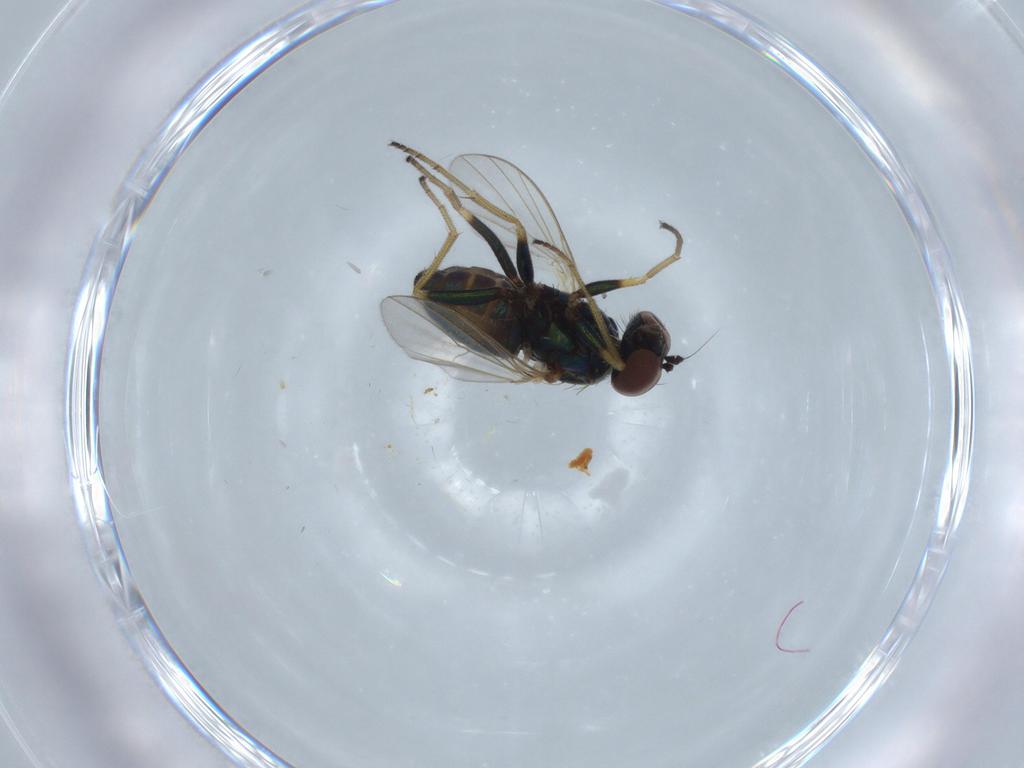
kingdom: Animalia
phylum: Arthropoda
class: Insecta
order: Diptera
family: Dolichopodidae
